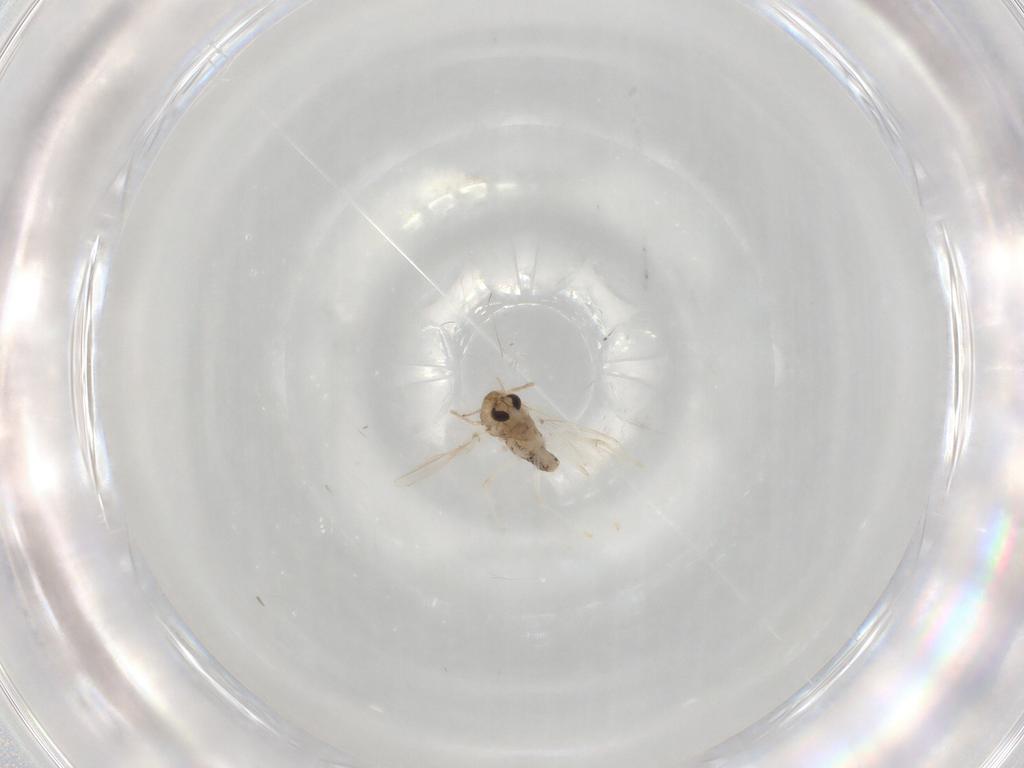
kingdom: Animalia
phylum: Arthropoda
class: Insecta
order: Diptera
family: Chironomidae
